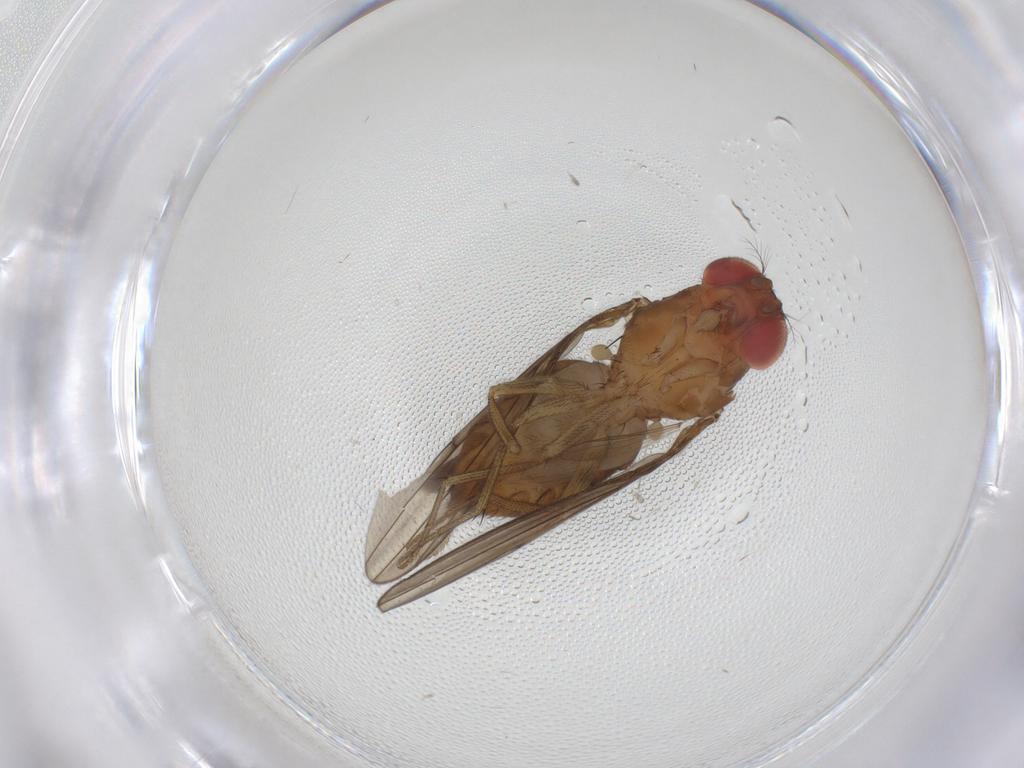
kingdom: Animalia
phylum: Arthropoda
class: Insecta
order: Diptera
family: Drosophilidae
